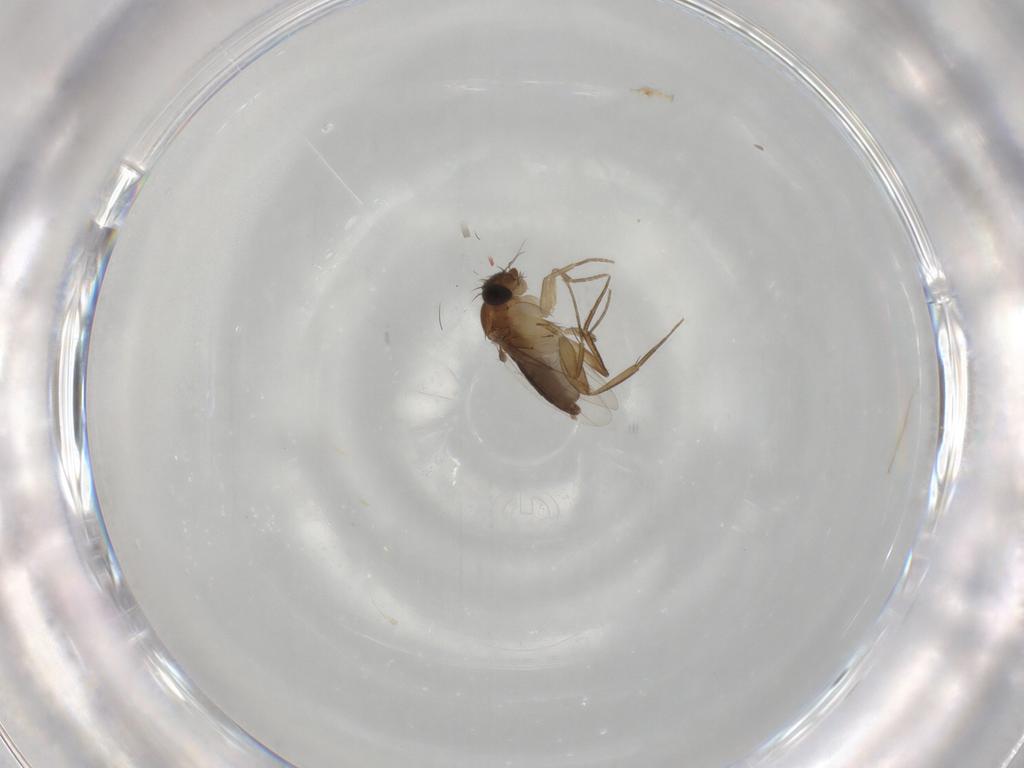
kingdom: Animalia
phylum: Arthropoda
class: Insecta
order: Diptera
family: Phoridae
